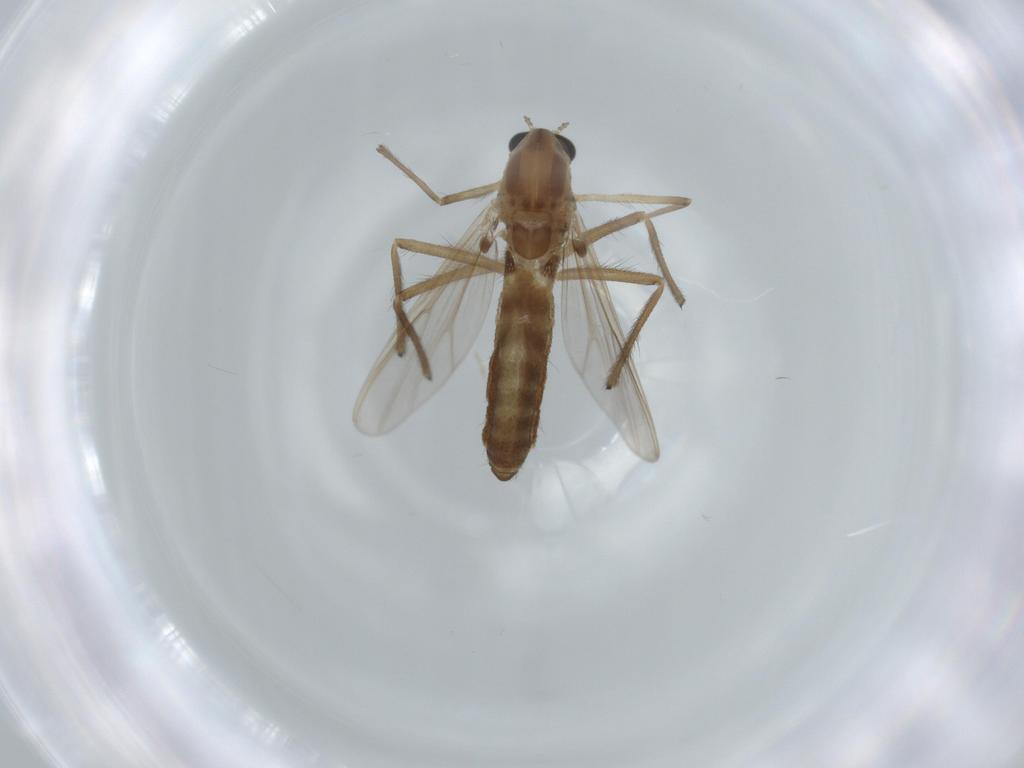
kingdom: Animalia
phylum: Arthropoda
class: Insecta
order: Diptera
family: Chironomidae
